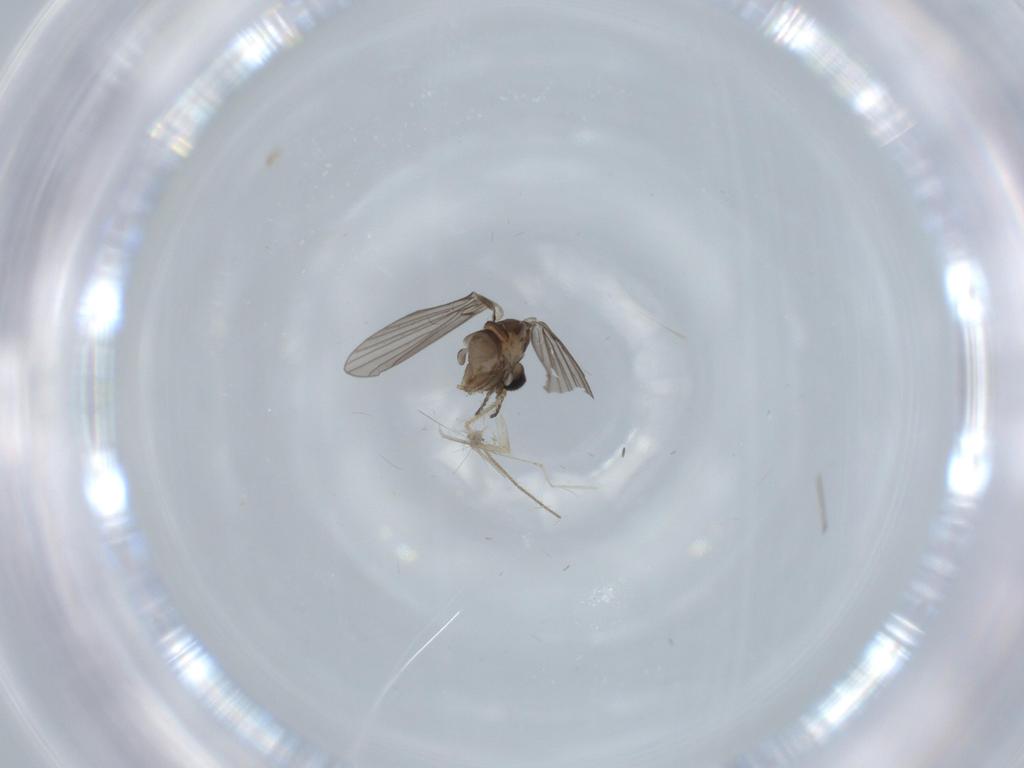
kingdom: Animalia
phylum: Arthropoda
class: Insecta
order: Diptera
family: Psychodidae
